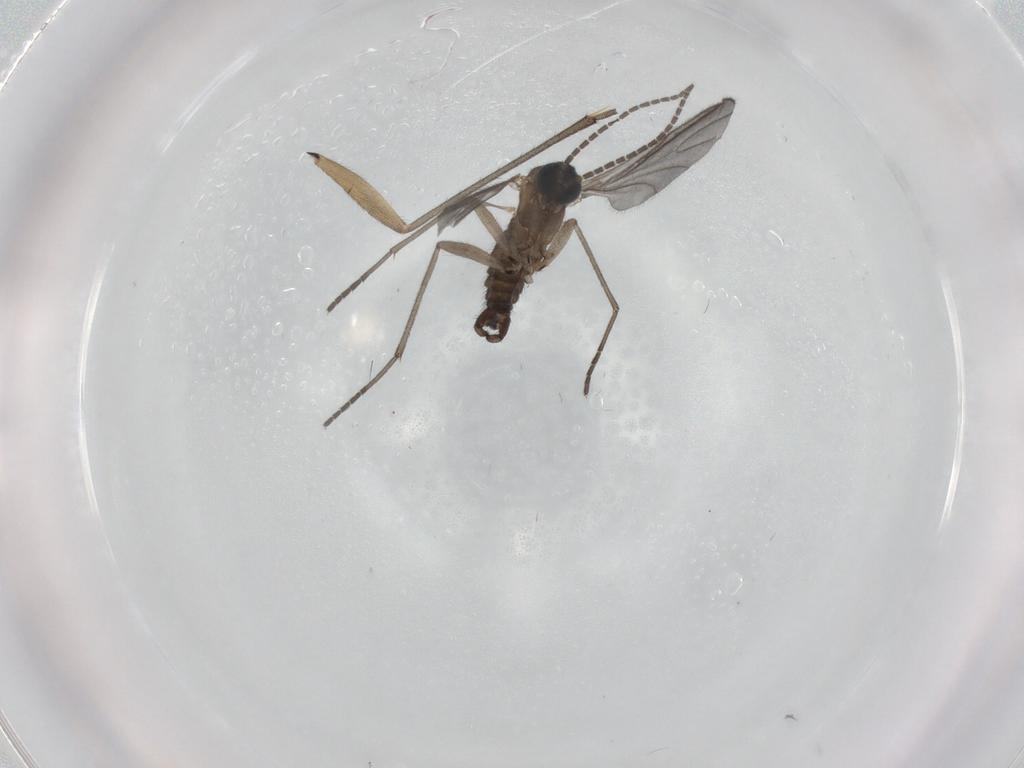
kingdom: Animalia
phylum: Arthropoda
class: Insecta
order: Diptera
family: Sciaridae
